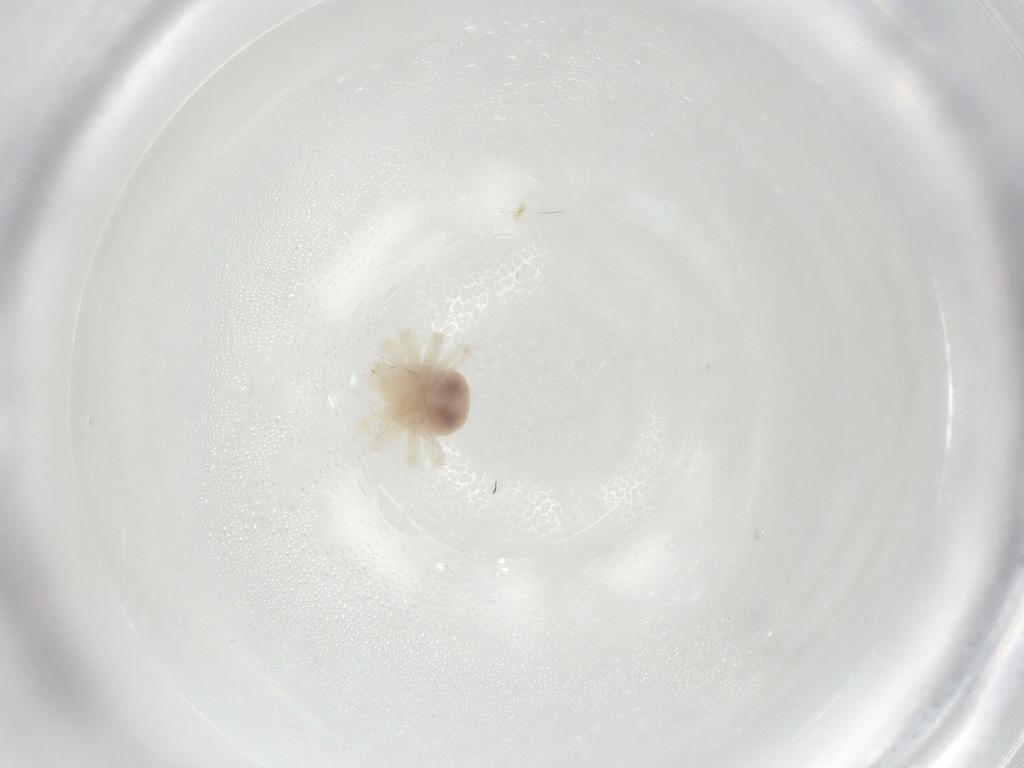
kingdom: Animalia
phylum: Arthropoda
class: Arachnida
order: Trombidiformes
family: Anystidae
